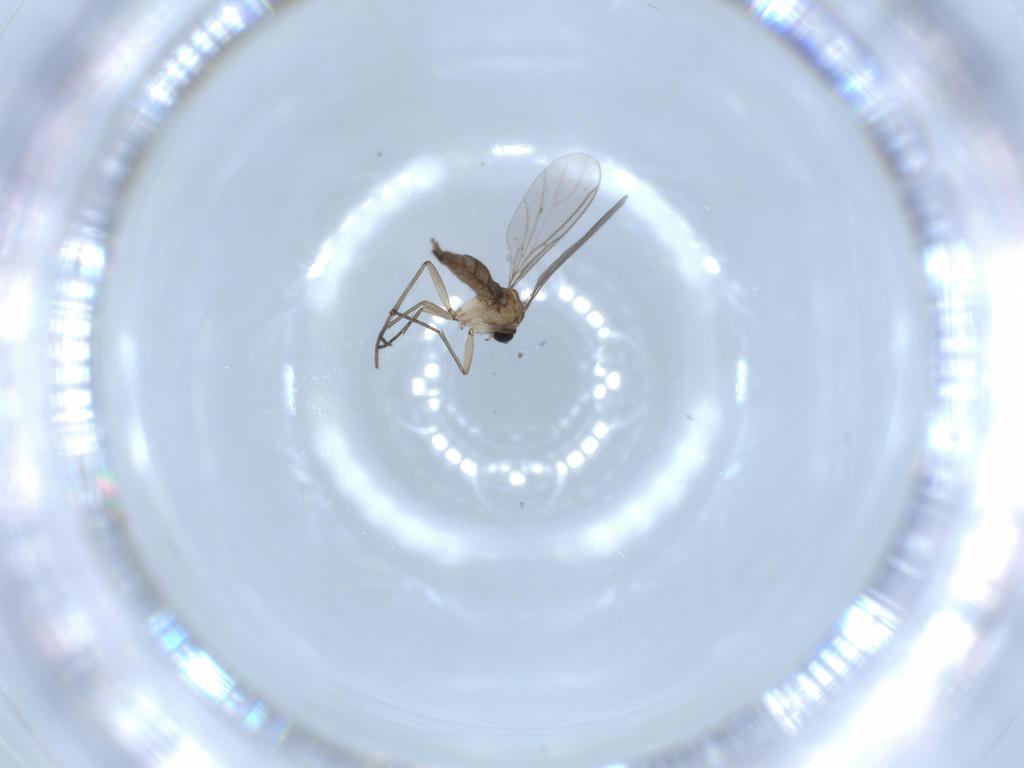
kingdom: Animalia
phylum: Arthropoda
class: Insecta
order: Diptera
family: Sciaridae
